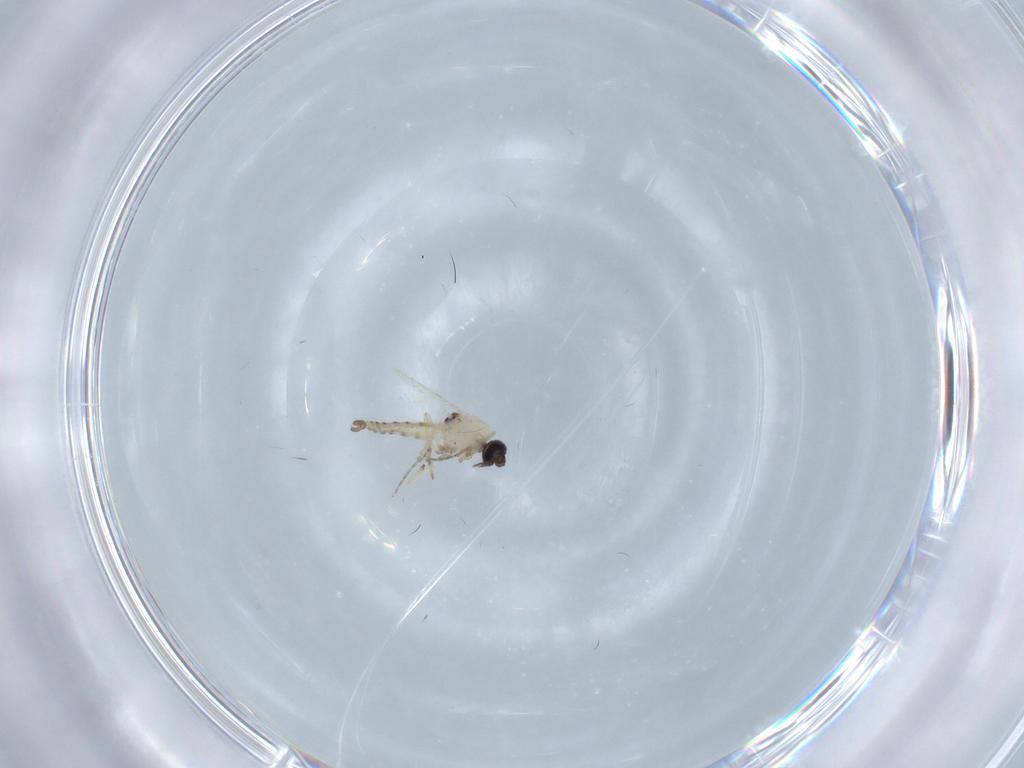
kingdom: Animalia
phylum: Arthropoda
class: Insecta
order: Diptera
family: Ceratopogonidae
